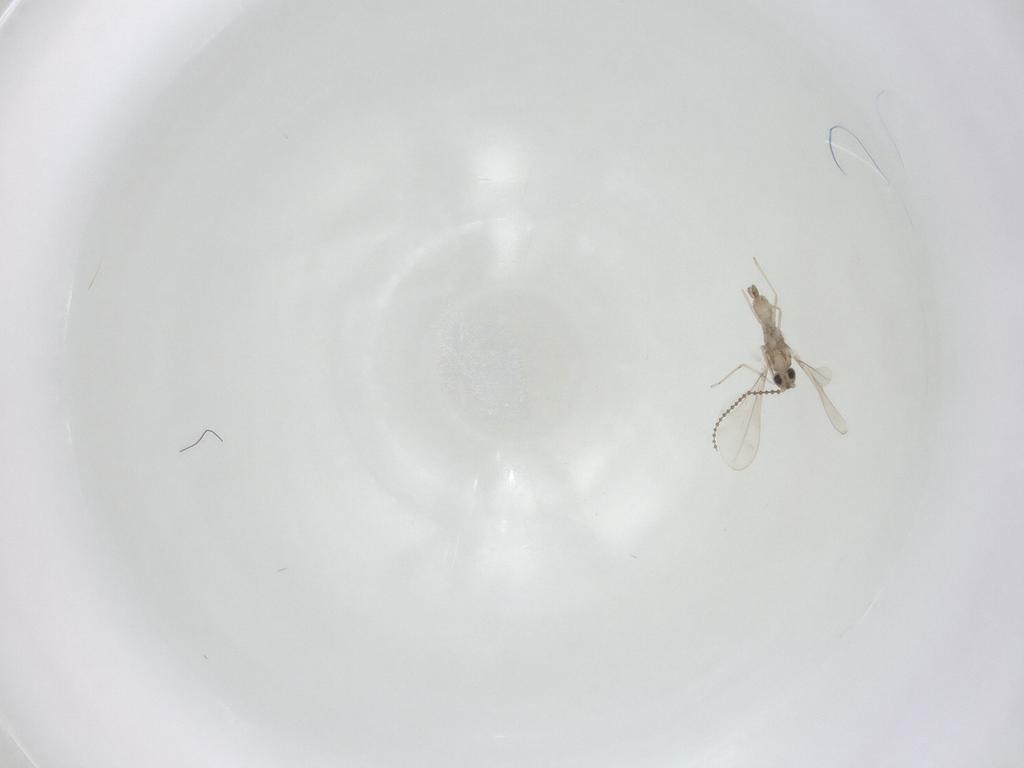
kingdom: Animalia
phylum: Arthropoda
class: Insecta
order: Diptera
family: Cecidomyiidae
